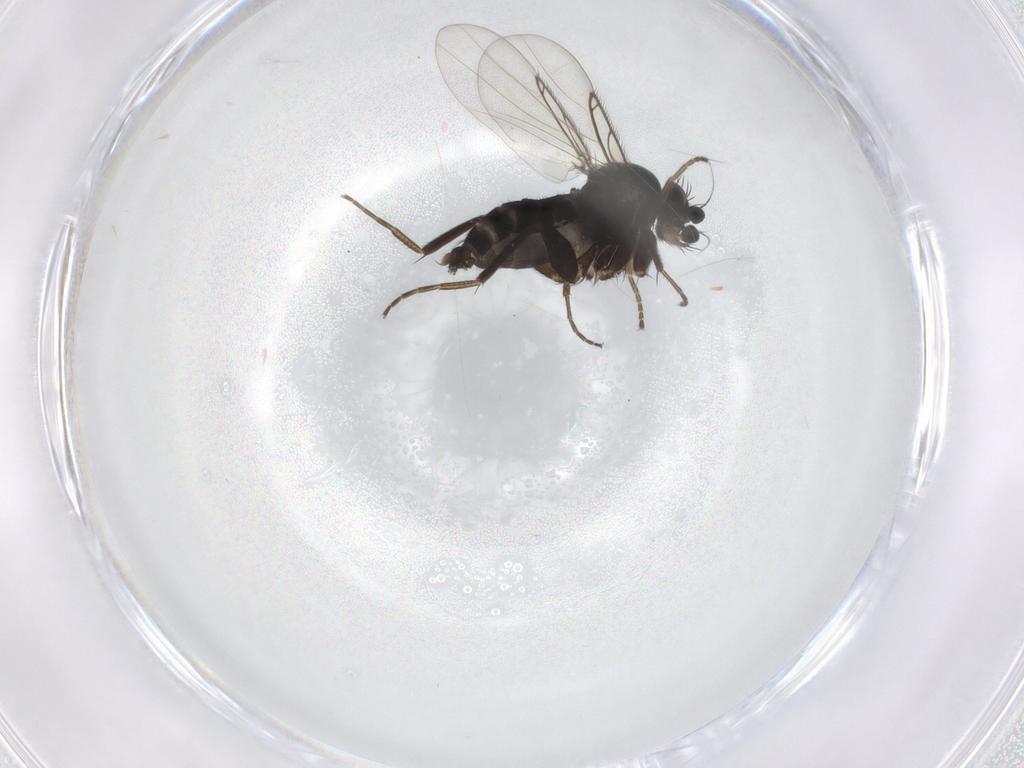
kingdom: Animalia
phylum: Arthropoda
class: Insecta
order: Diptera
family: Phoridae
